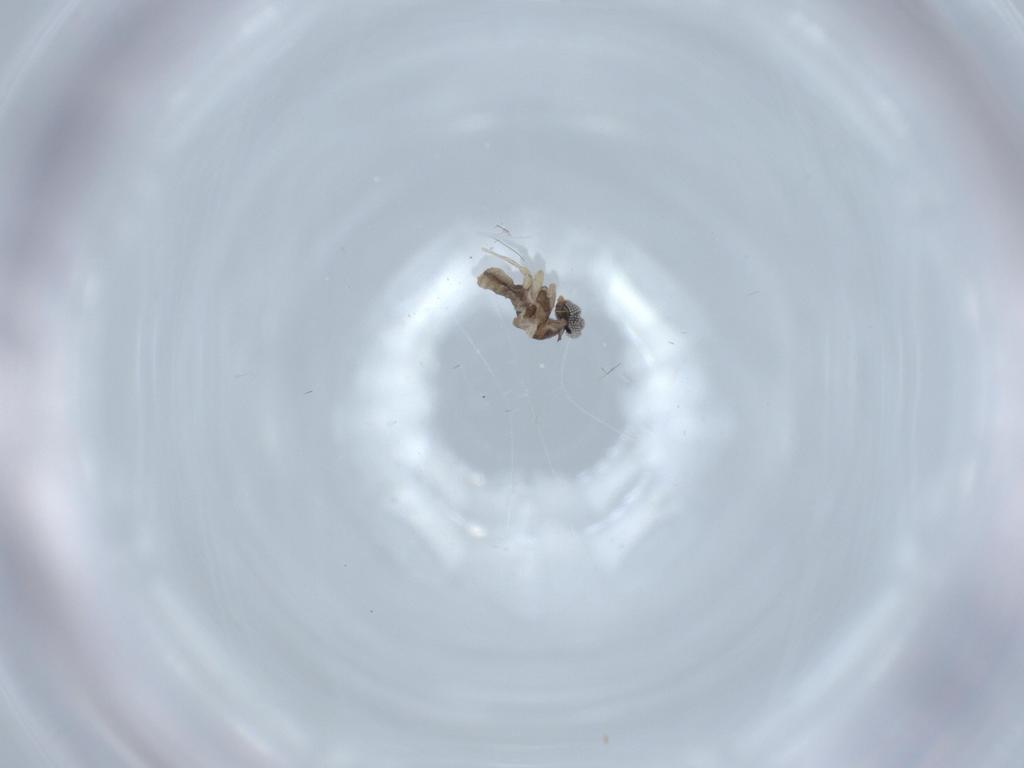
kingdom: Animalia
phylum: Arthropoda
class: Insecta
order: Diptera
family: Cecidomyiidae
